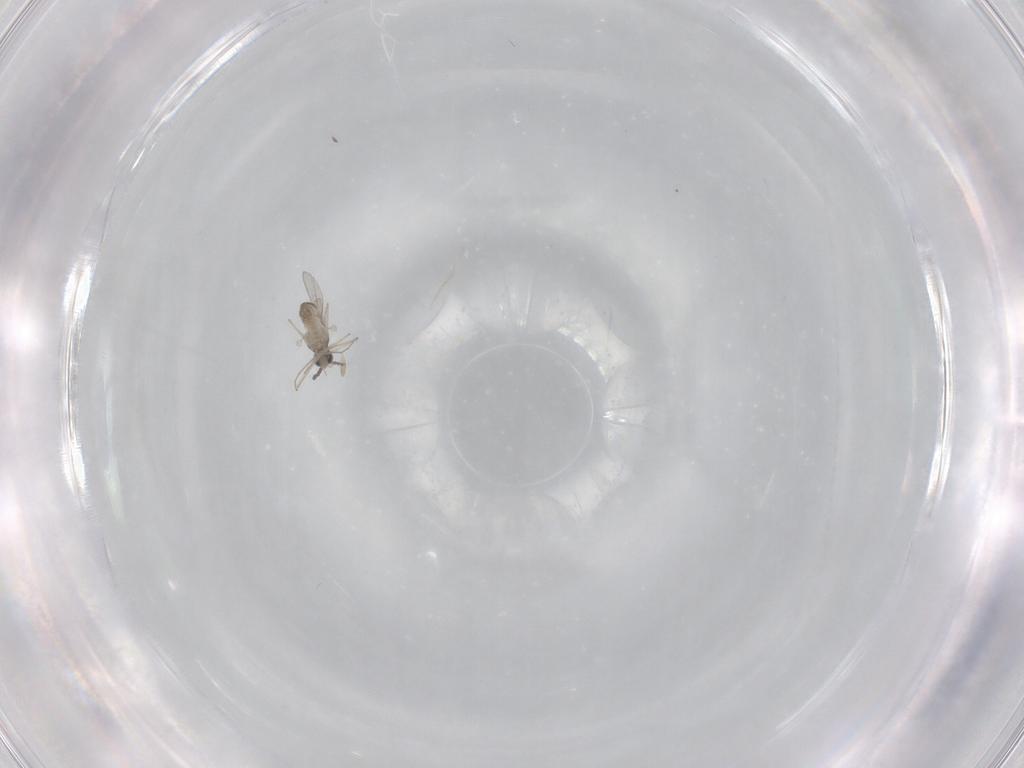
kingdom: Animalia
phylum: Arthropoda
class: Insecta
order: Diptera
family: Cecidomyiidae
